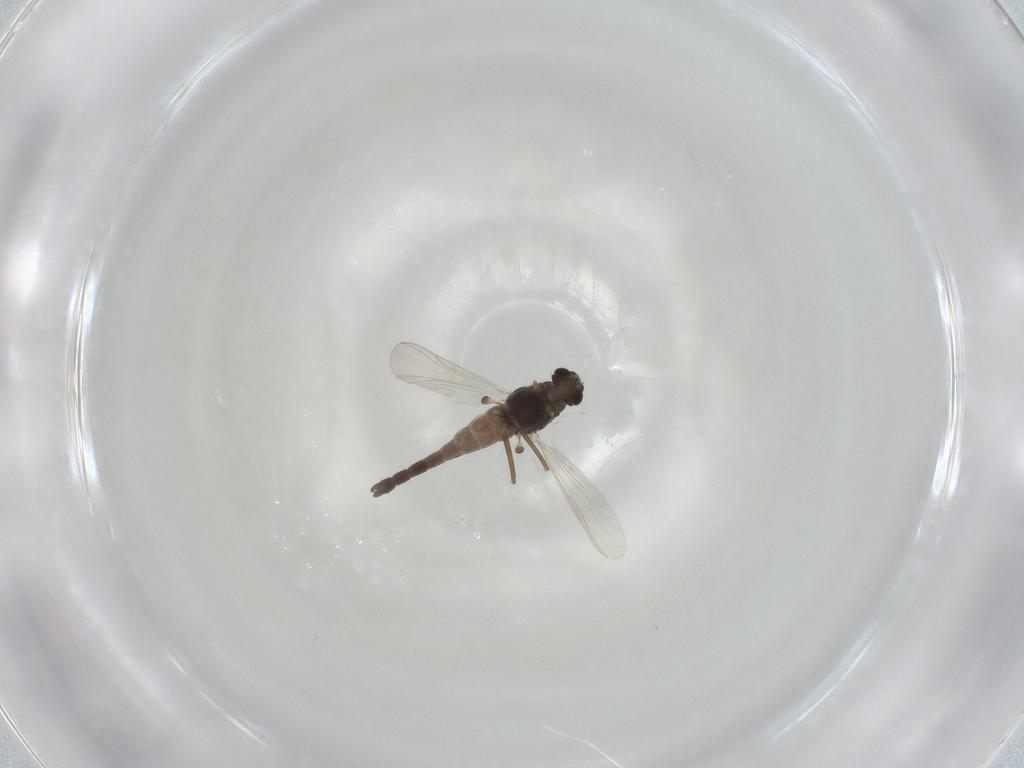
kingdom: Animalia
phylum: Arthropoda
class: Insecta
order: Diptera
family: Chironomidae
